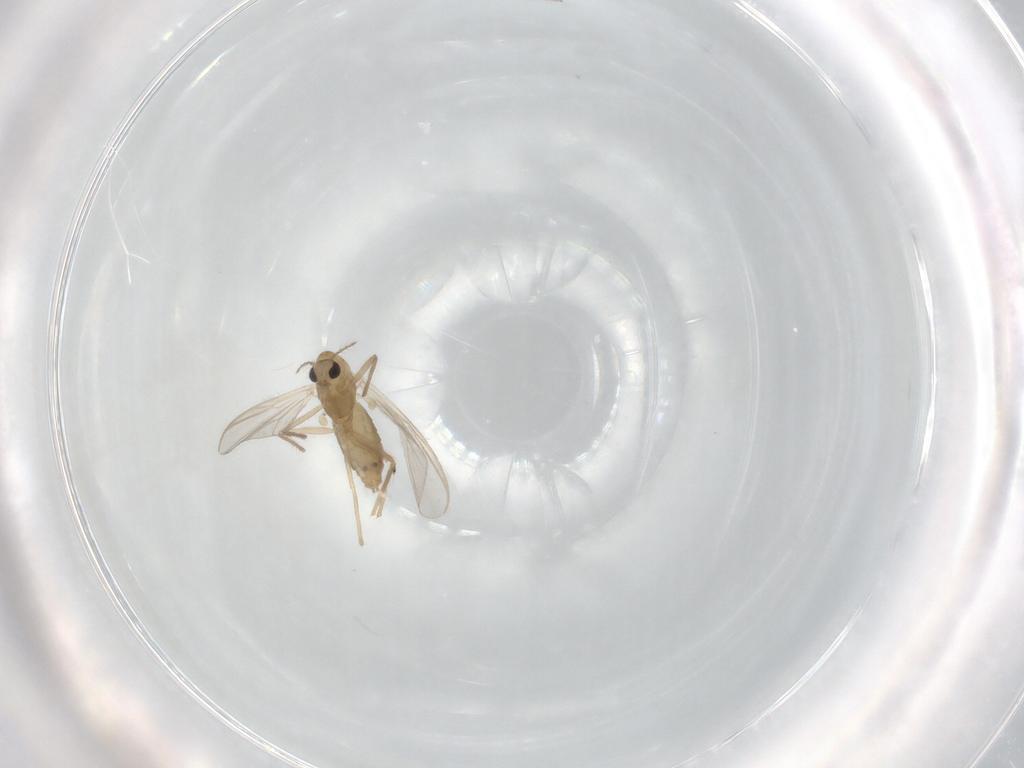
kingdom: Animalia
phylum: Arthropoda
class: Insecta
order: Diptera
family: Chironomidae
